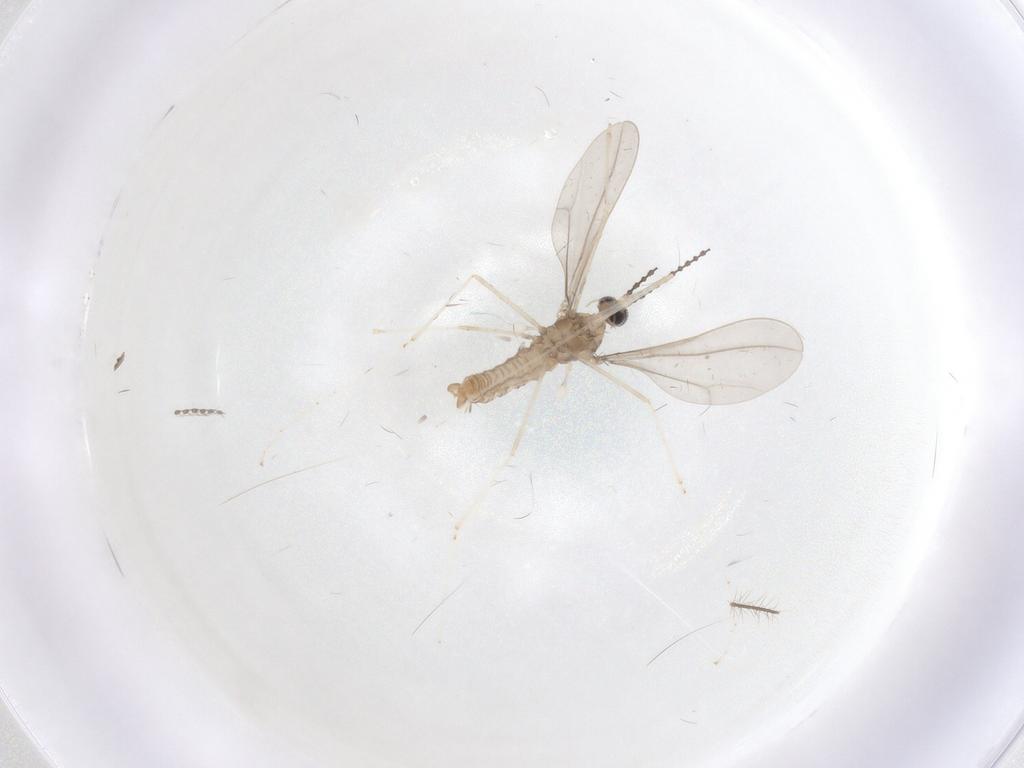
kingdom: Animalia
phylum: Arthropoda
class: Insecta
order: Diptera
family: Cecidomyiidae
